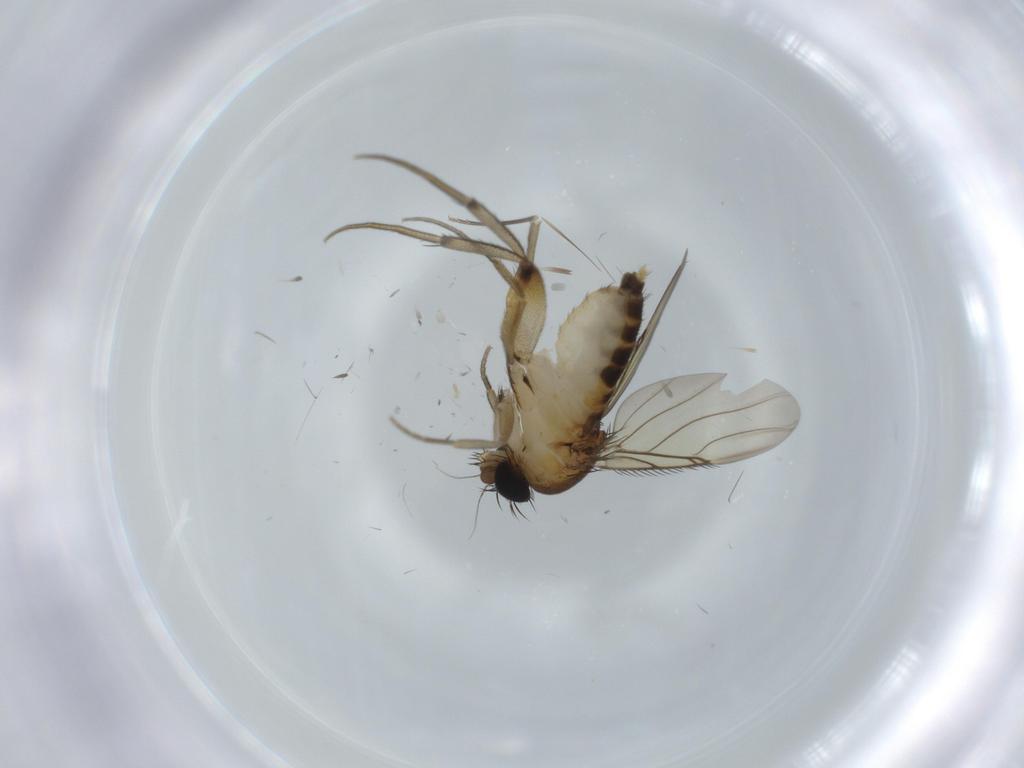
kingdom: Animalia
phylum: Arthropoda
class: Insecta
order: Diptera
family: Phoridae
